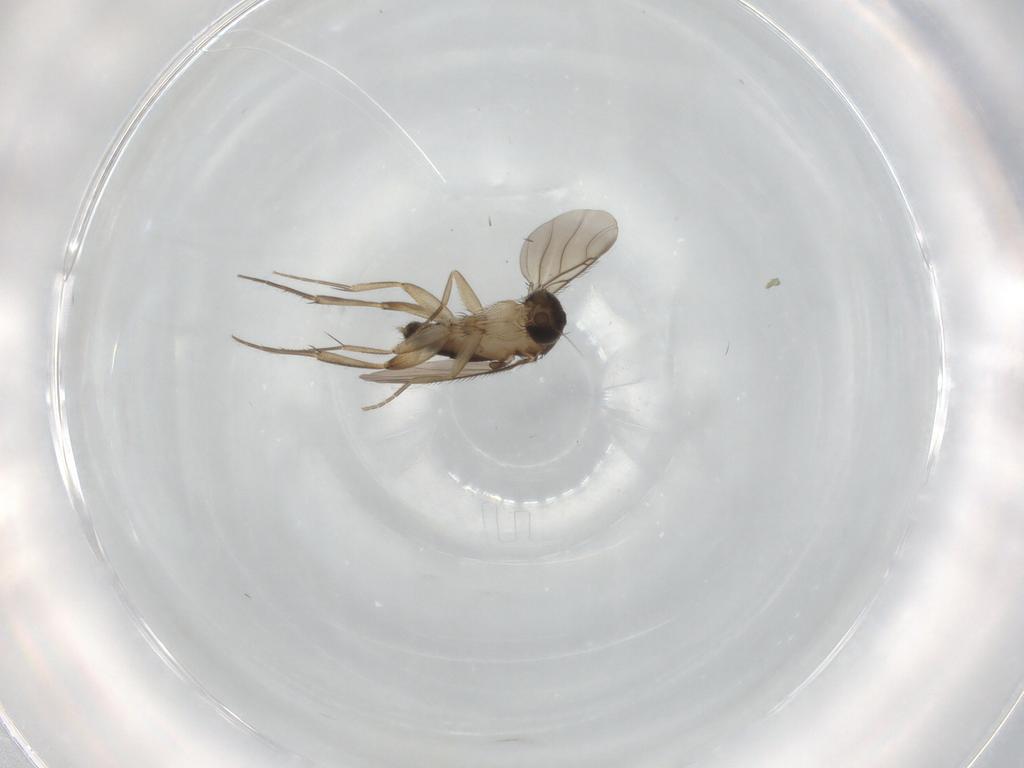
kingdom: Animalia
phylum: Arthropoda
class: Insecta
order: Diptera
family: Phoridae
